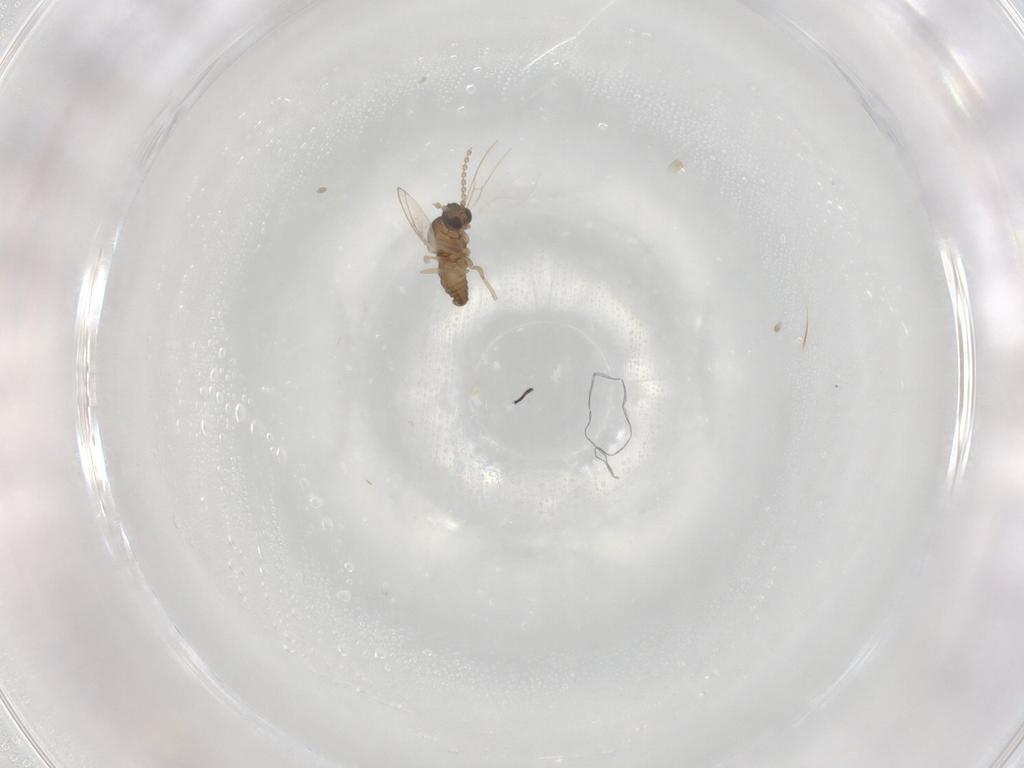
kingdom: Animalia
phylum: Arthropoda
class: Insecta
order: Diptera
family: Cecidomyiidae
